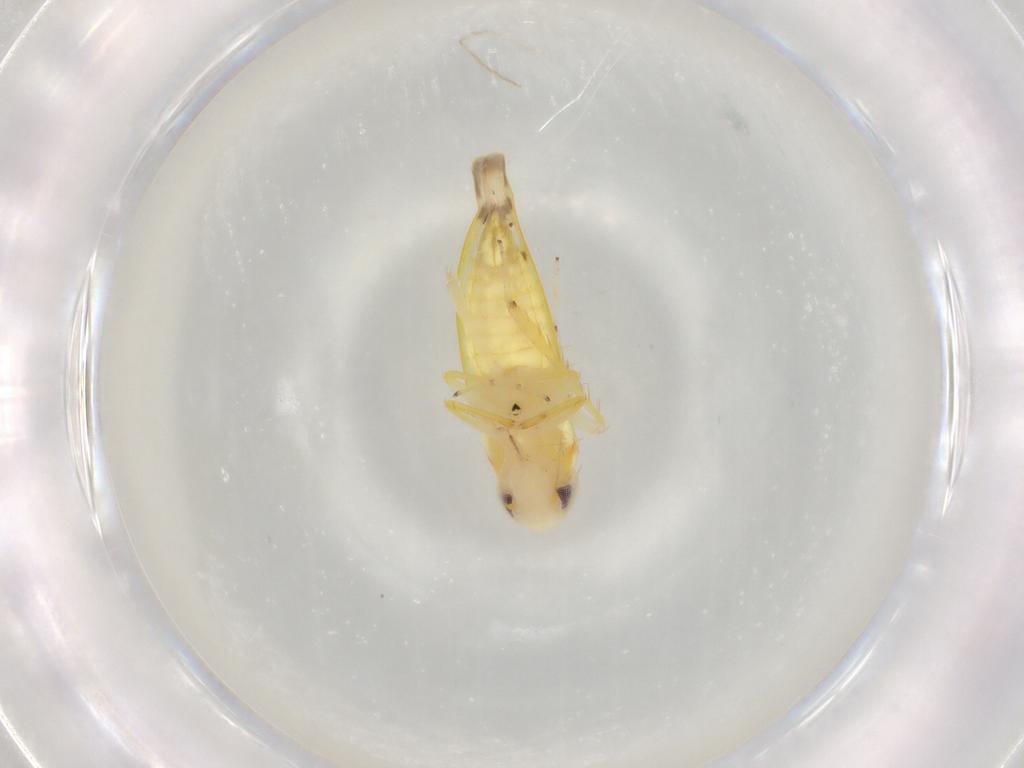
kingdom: Animalia
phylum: Arthropoda
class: Insecta
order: Hemiptera
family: Cicadellidae
